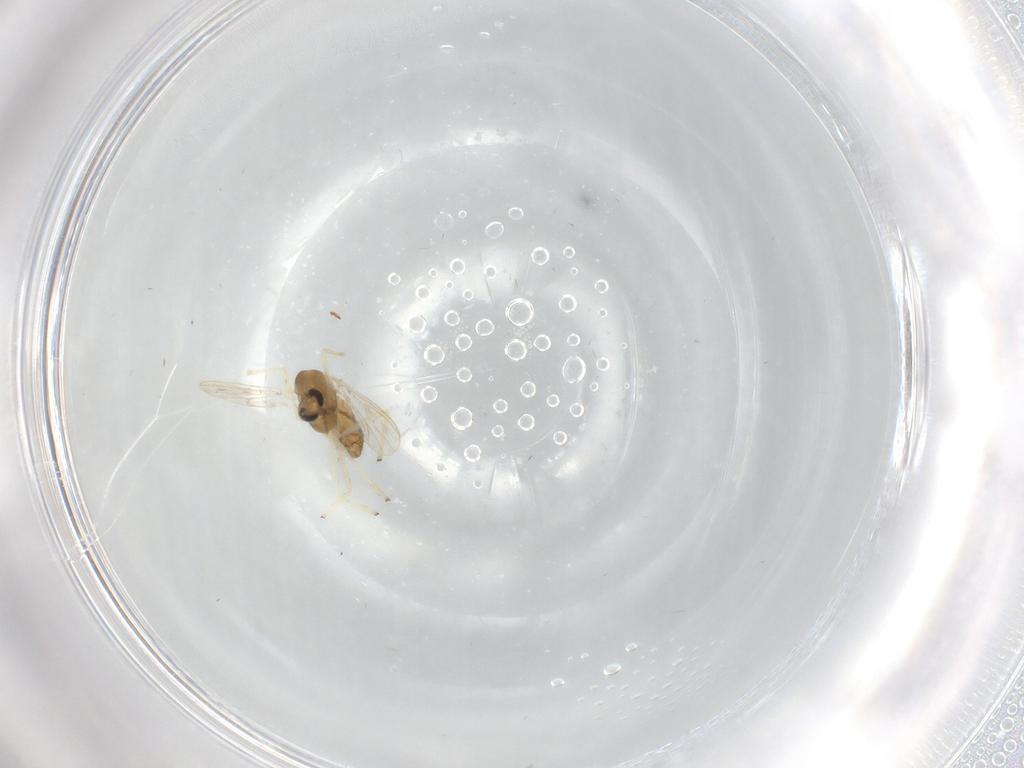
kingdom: Animalia
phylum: Arthropoda
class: Insecta
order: Diptera
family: Chironomidae
